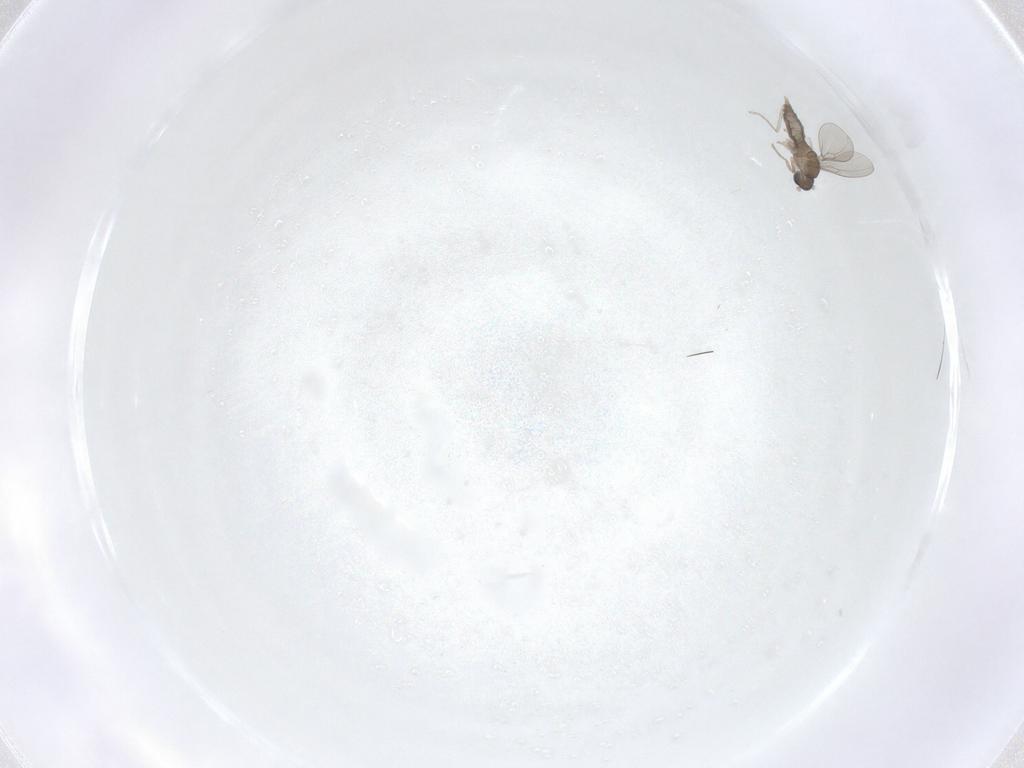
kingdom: Animalia
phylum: Arthropoda
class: Insecta
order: Diptera
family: Cecidomyiidae
